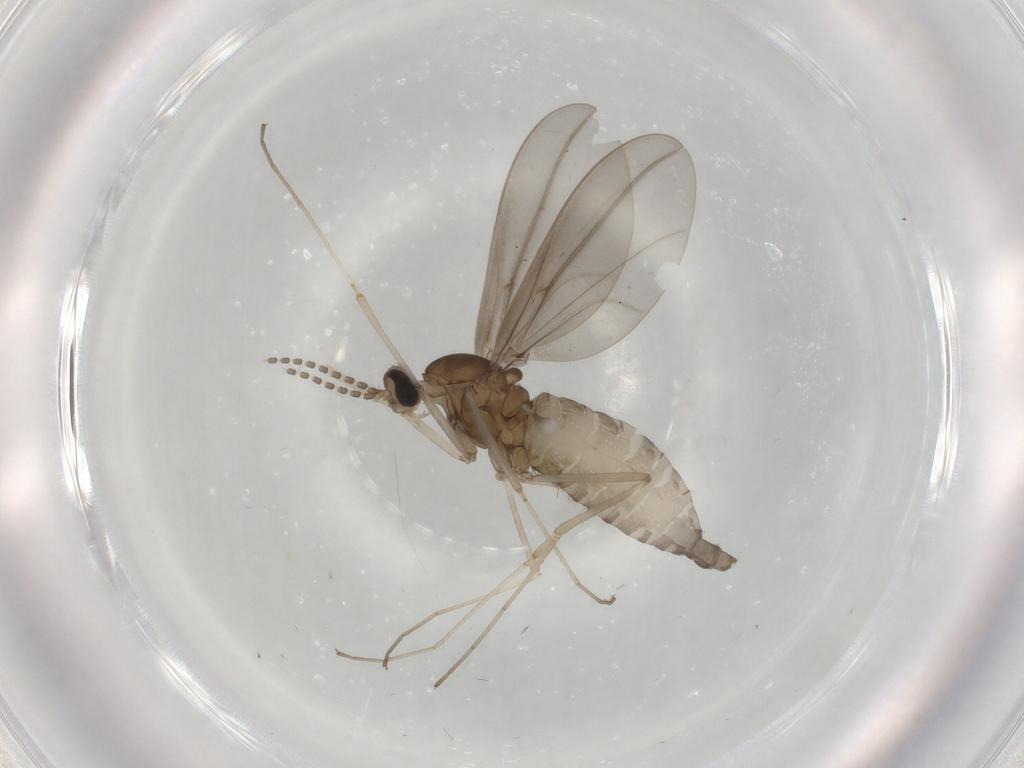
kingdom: Animalia
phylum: Arthropoda
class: Insecta
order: Diptera
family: Cecidomyiidae
